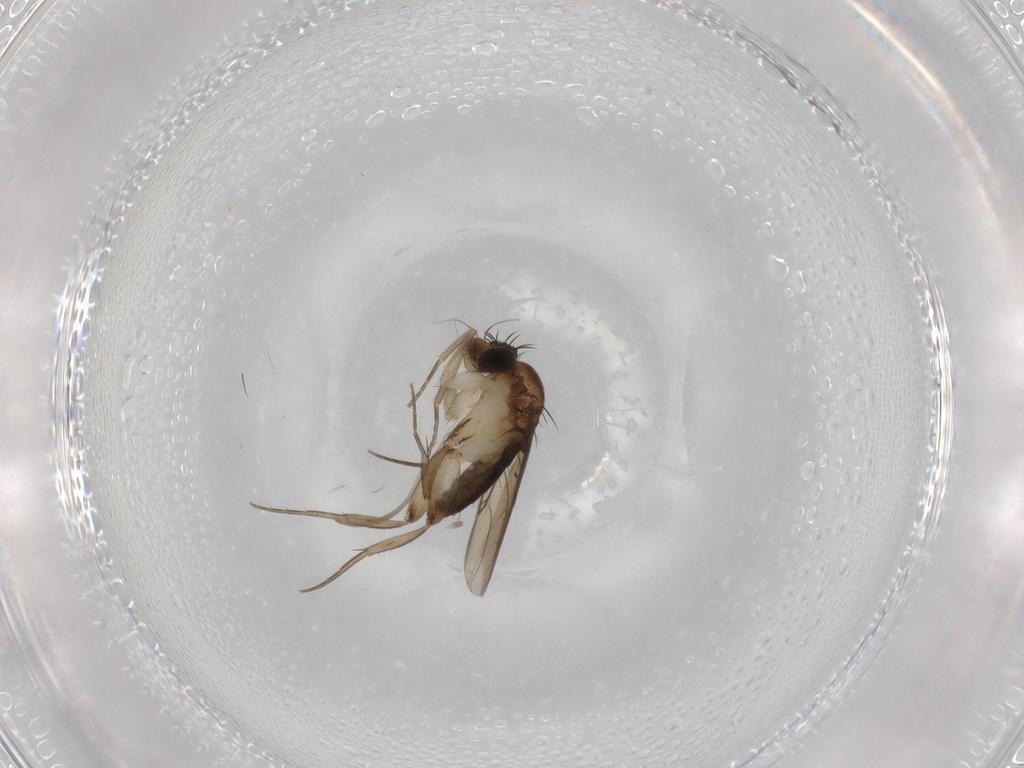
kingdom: Animalia
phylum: Arthropoda
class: Insecta
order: Diptera
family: Phoridae
